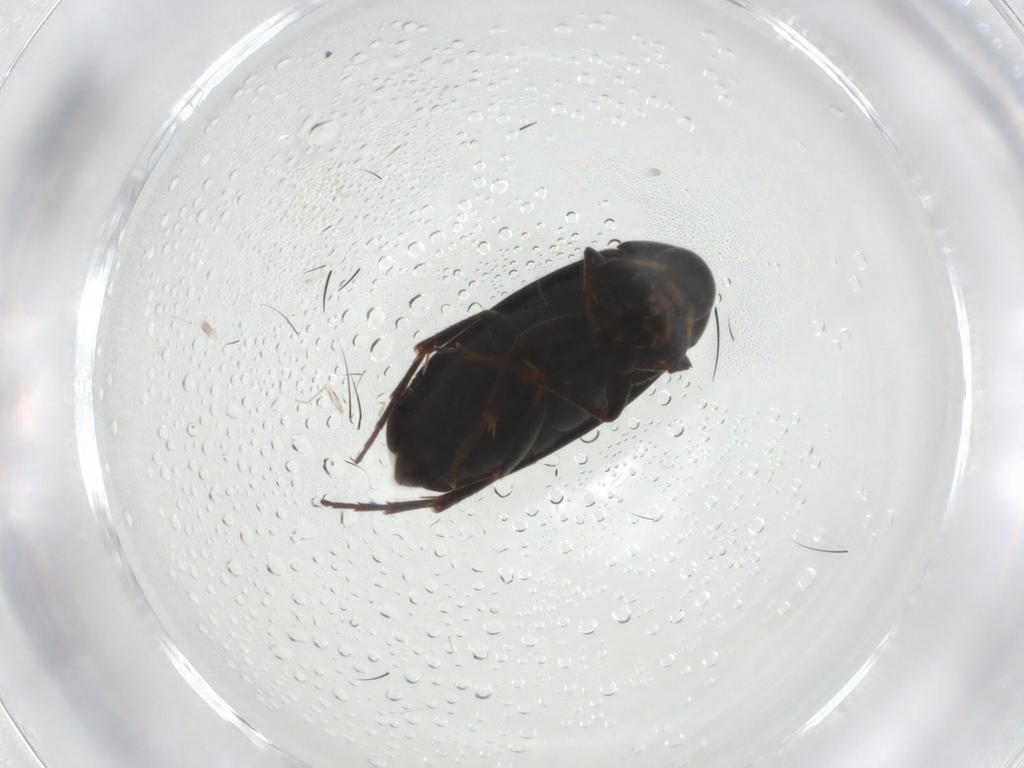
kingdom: Animalia
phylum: Arthropoda
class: Insecta
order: Coleoptera
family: Scraptiidae
